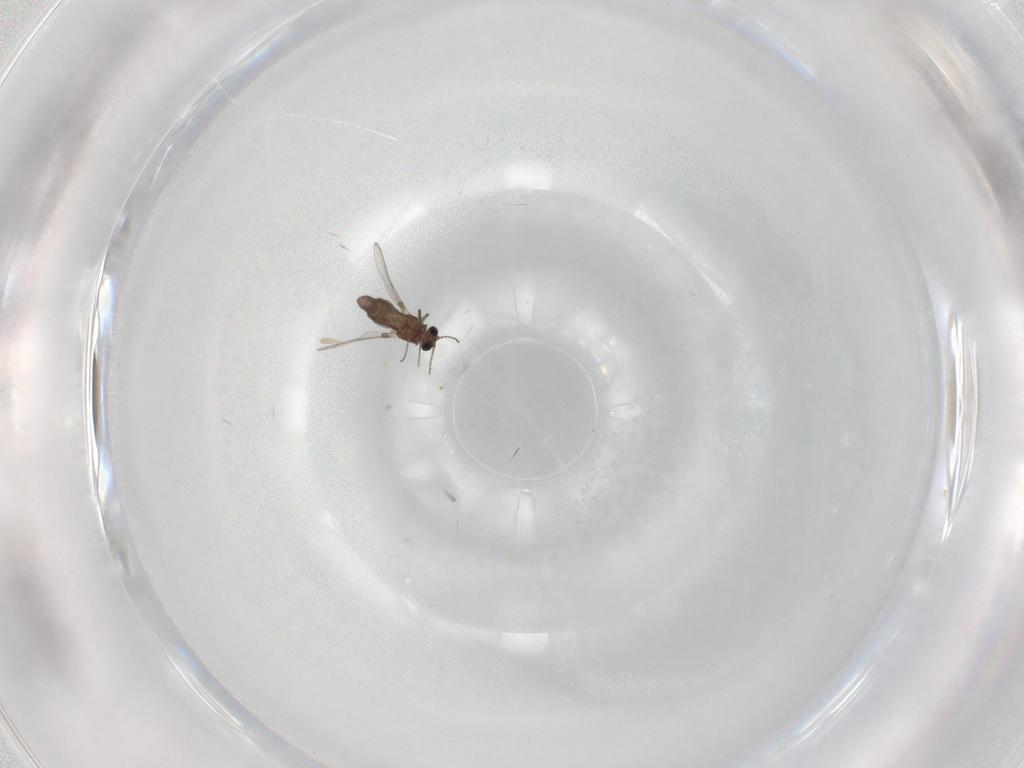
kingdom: Animalia
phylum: Arthropoda
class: Insecta
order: Diptera
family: Chironomidae
